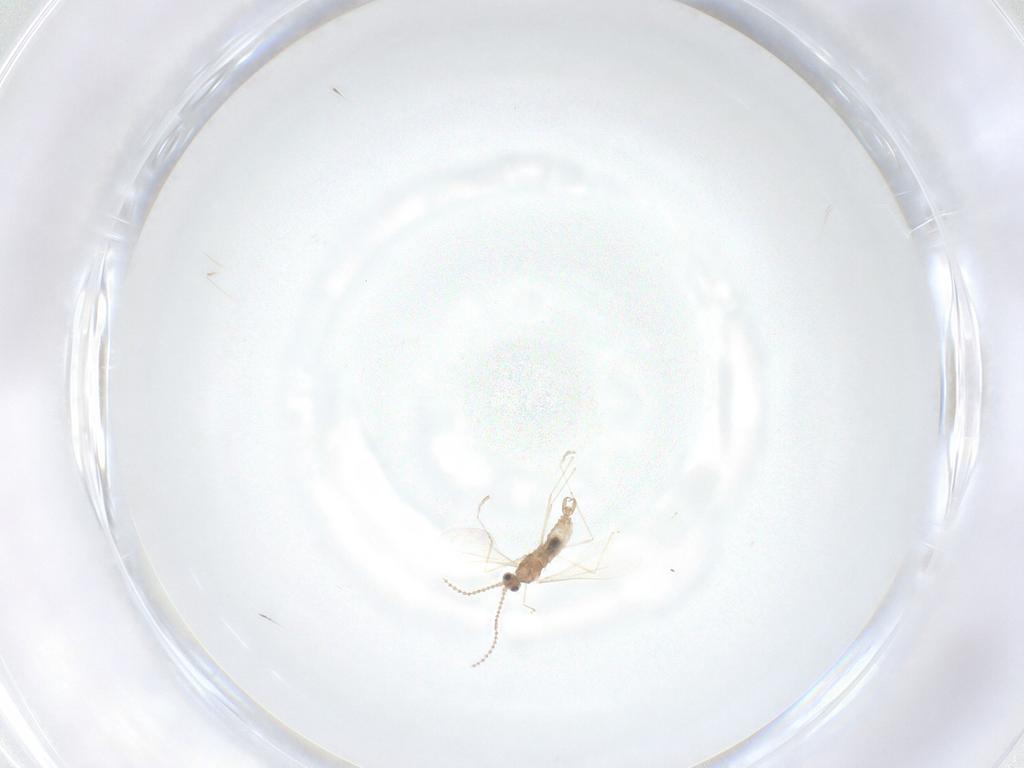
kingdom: Animalia
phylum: Arthropoda
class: Insecta
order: Diptera
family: Cecidomyiidae
